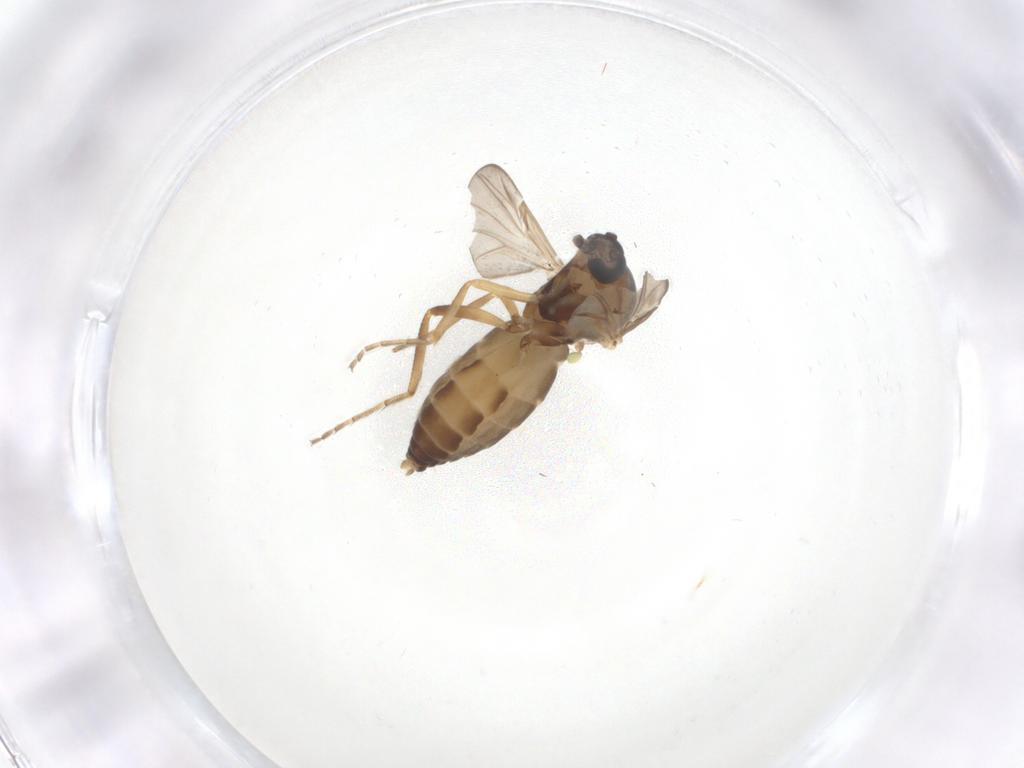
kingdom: Animalia
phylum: Arthropoda
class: Insecta
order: Diptera
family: Ceratopogonidae
